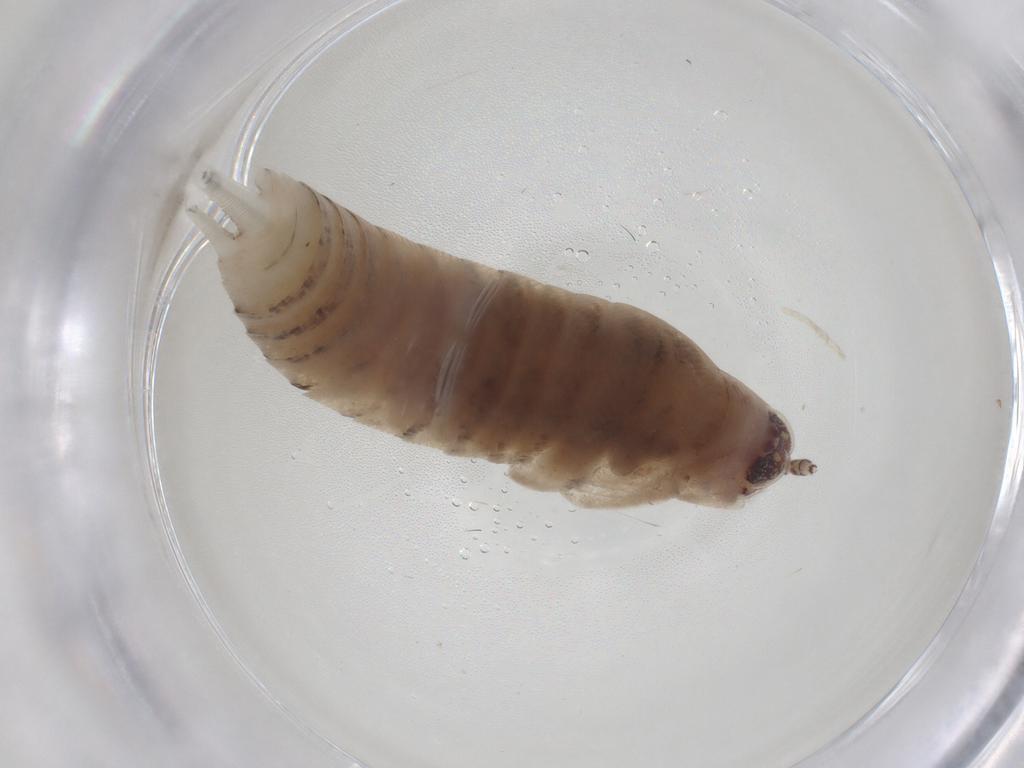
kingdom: Animalia
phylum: Arthropoda
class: Insecta
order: Diptera
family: Tabanidae
